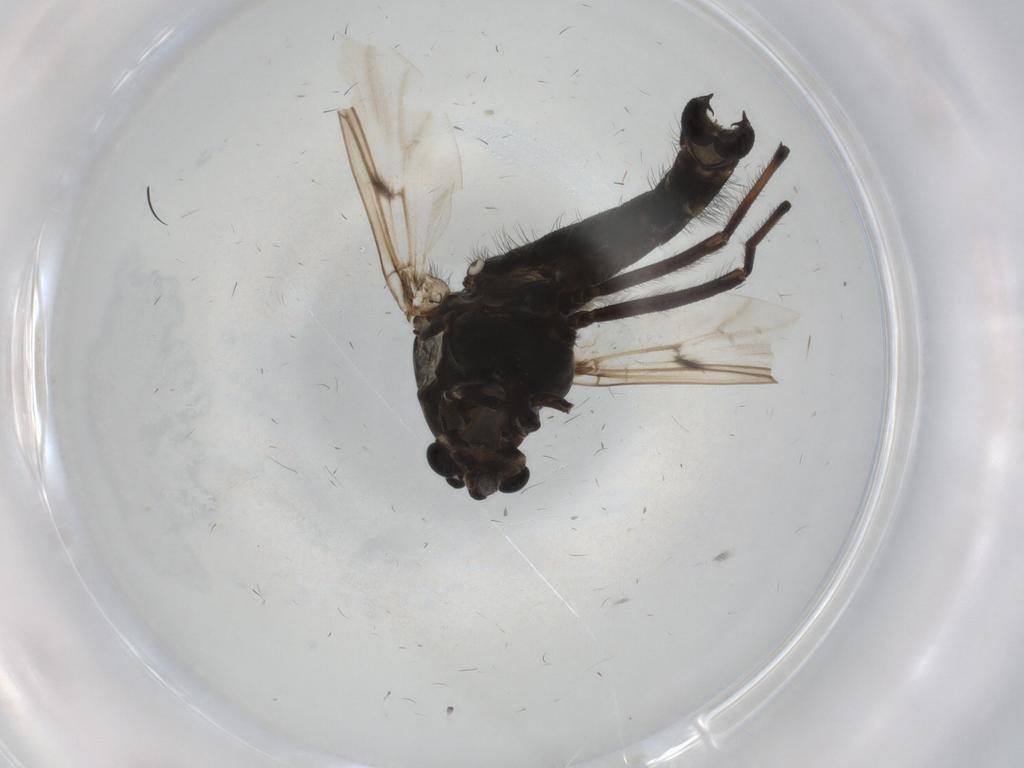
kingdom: Animalia
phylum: Arthropoda
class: Insecta
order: Diptera
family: Chironomidae
